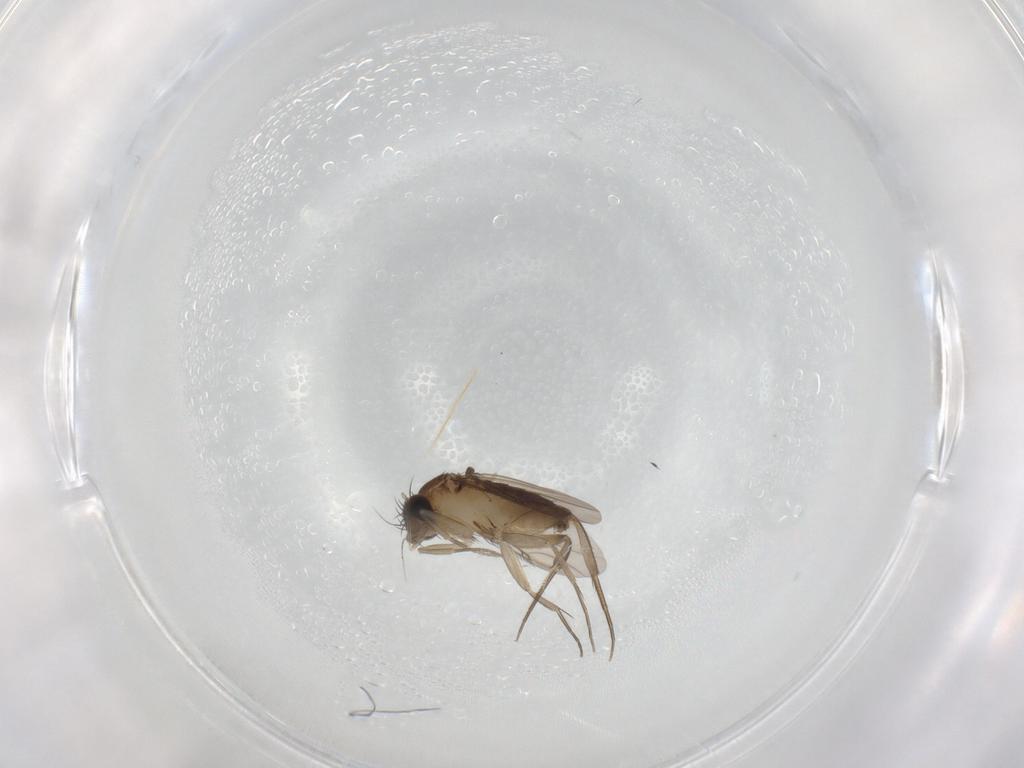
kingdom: Animalia
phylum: Arthropoda
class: Insecta
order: Diptera
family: Phoridae
